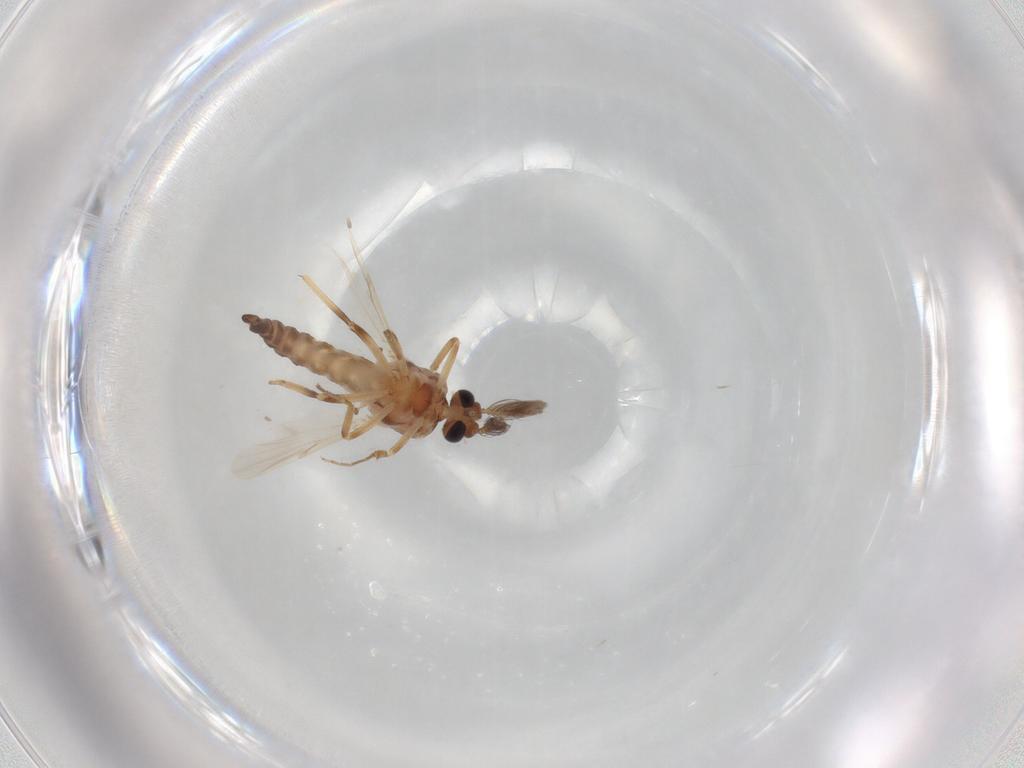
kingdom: Animalia
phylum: Arthropoda
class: Insecta
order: Diptera
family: Ceratopogonidae
